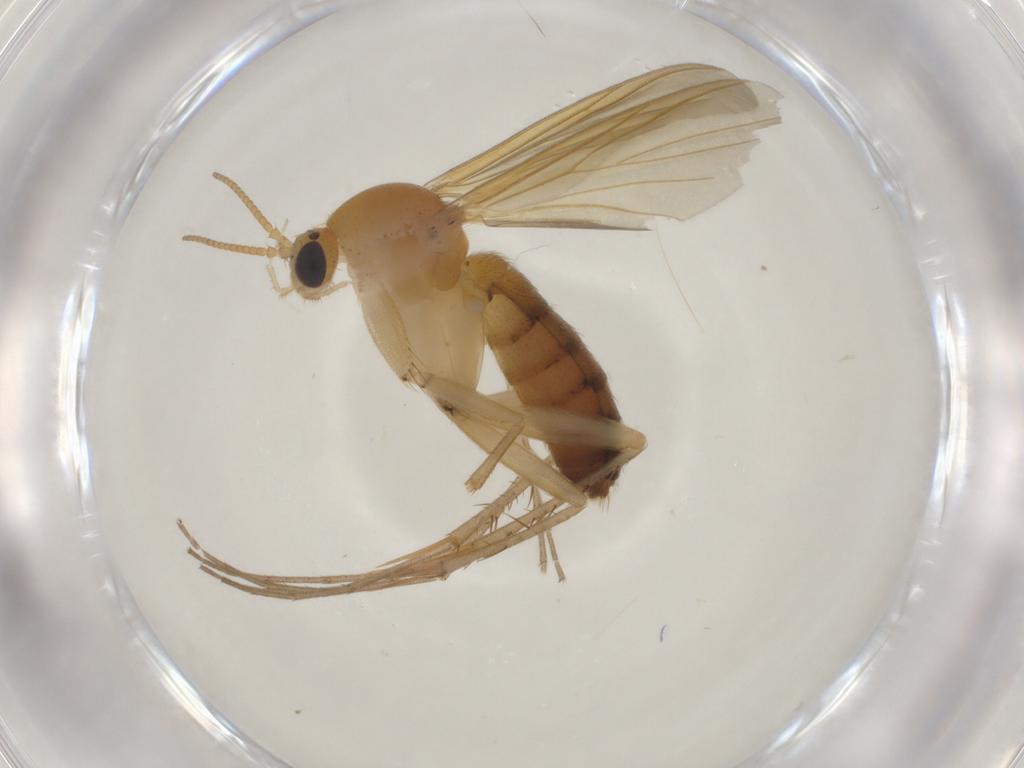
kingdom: Animalia
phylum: Arthropoda
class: Insecta
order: Diptera
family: Mycetophilidae
